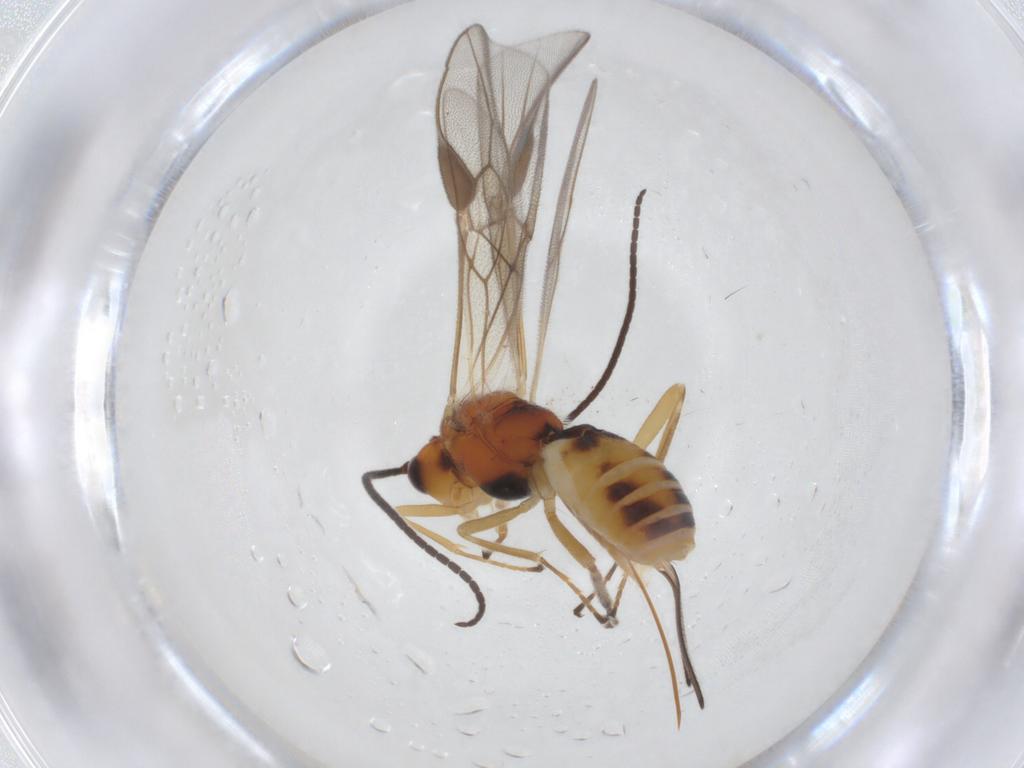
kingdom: Animalia
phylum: Arthropoda
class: Insecta
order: Hymenoptera
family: Braconidae
